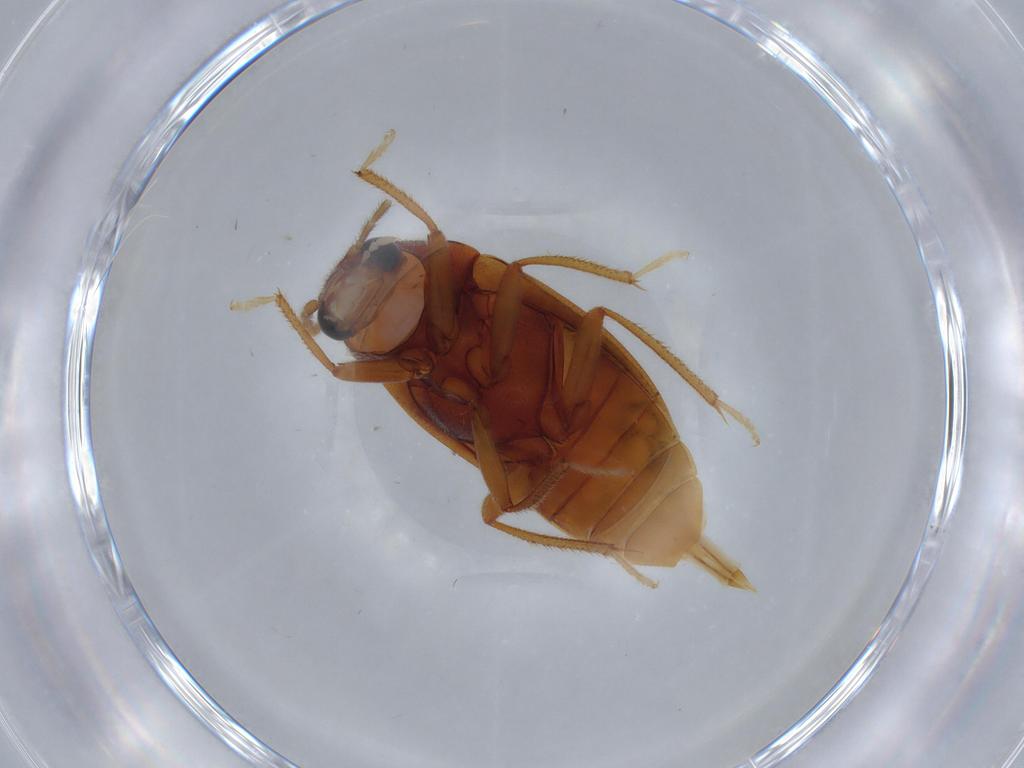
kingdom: Animalia
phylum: Arthropoda
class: Insecta
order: Coleoptera
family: Ptilodactylidae
